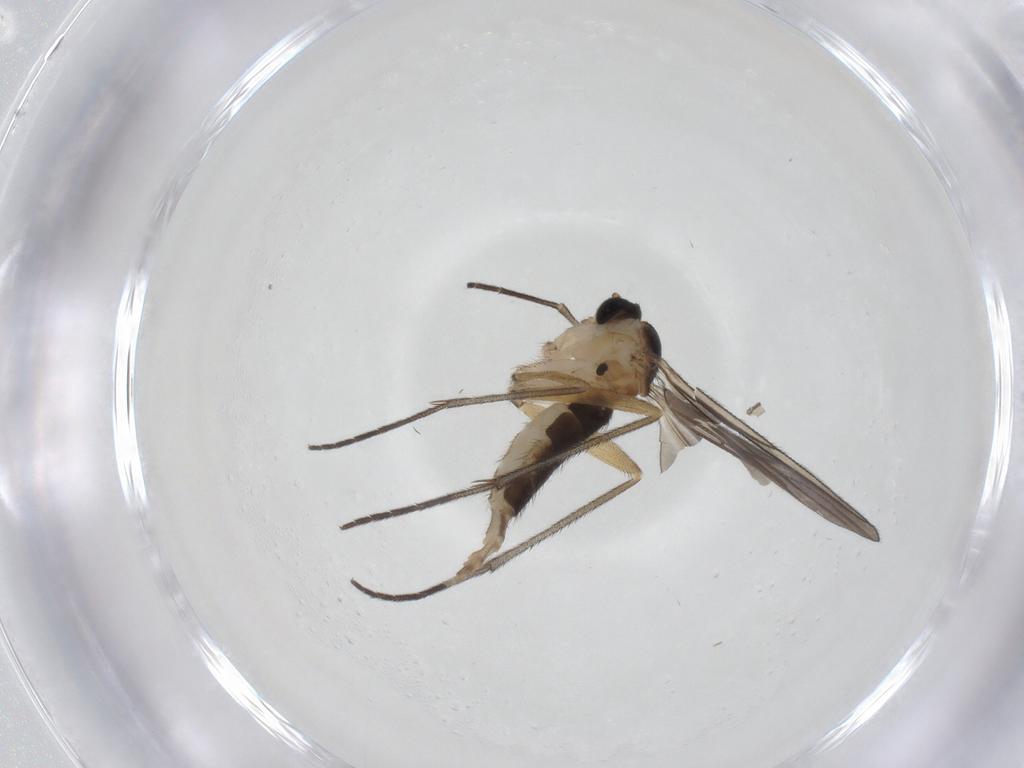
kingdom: Animalia
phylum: Arthropoda
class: Insecta
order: Diptera
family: Sciaridae
